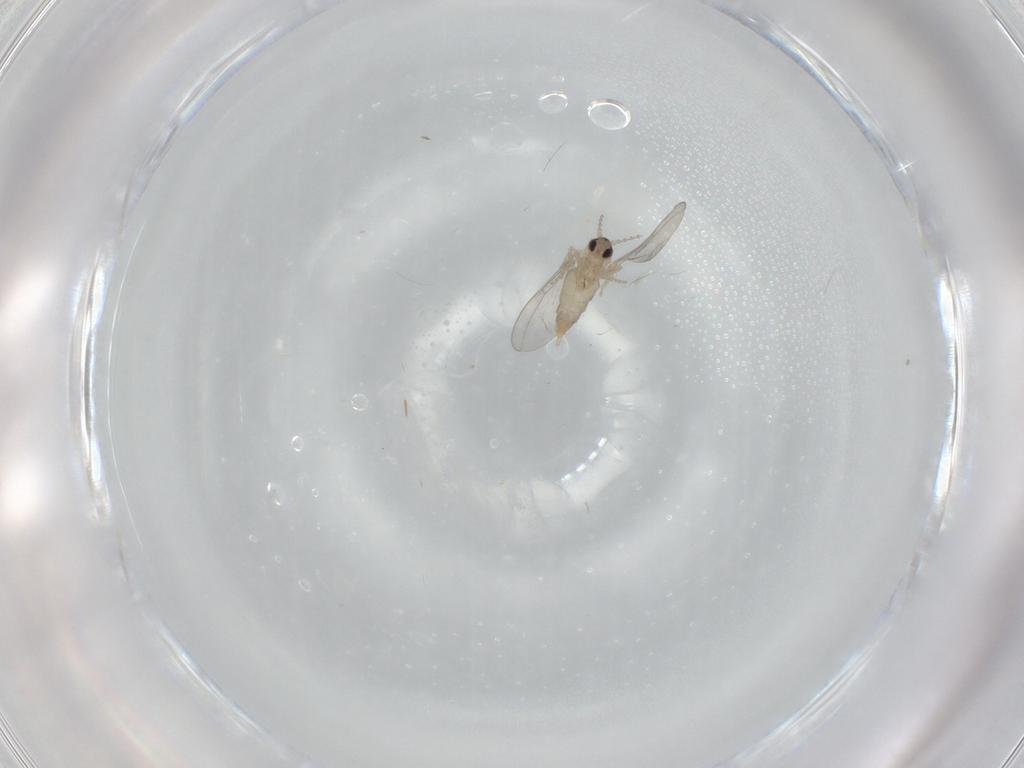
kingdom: Animalia
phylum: Arthropoda
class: Insecta
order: Diptera
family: Cecidomyiidae
